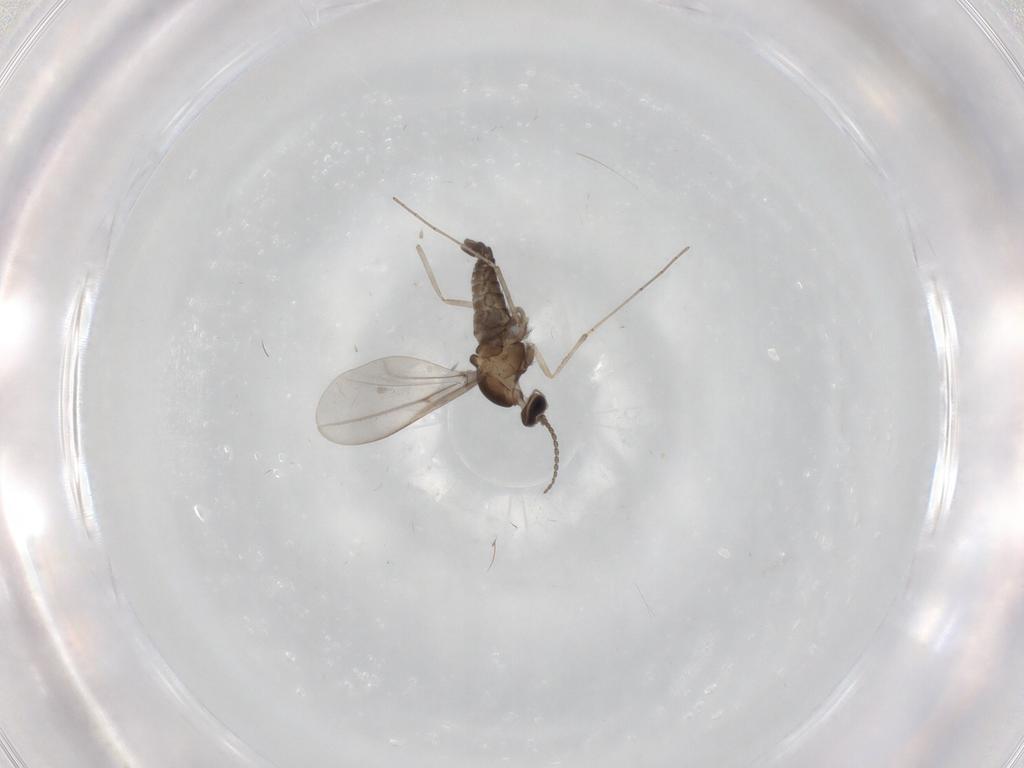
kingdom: Animalia
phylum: Arthropoda
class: Insecta
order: Diptera
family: Cecidomyiidae
